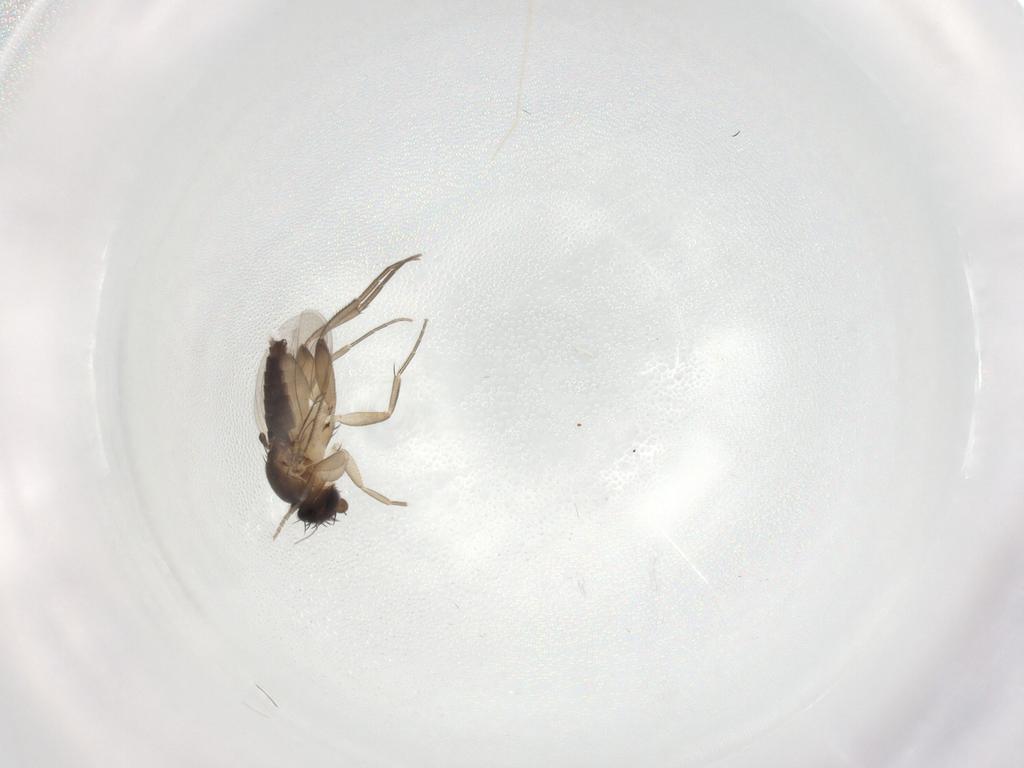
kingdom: Animalia
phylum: Arthropoda
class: Insecta
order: Diptera
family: Phoridae
